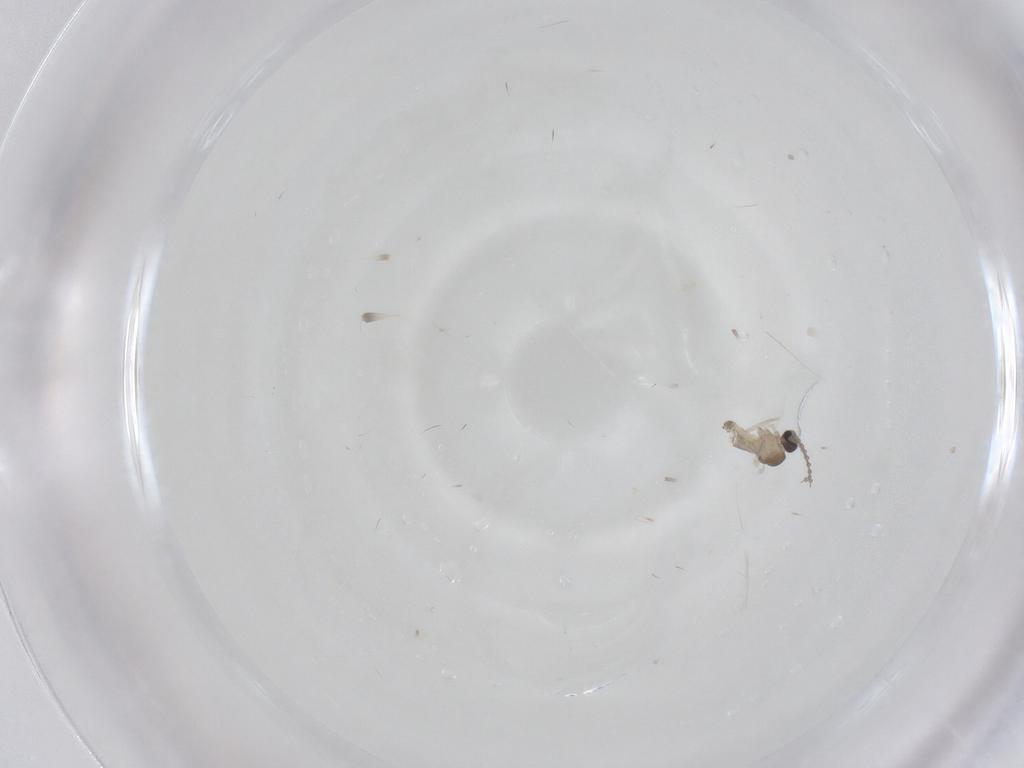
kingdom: Animalia
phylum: Arthropoda
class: Insecta
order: Diptera
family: Cecidomyiidae
